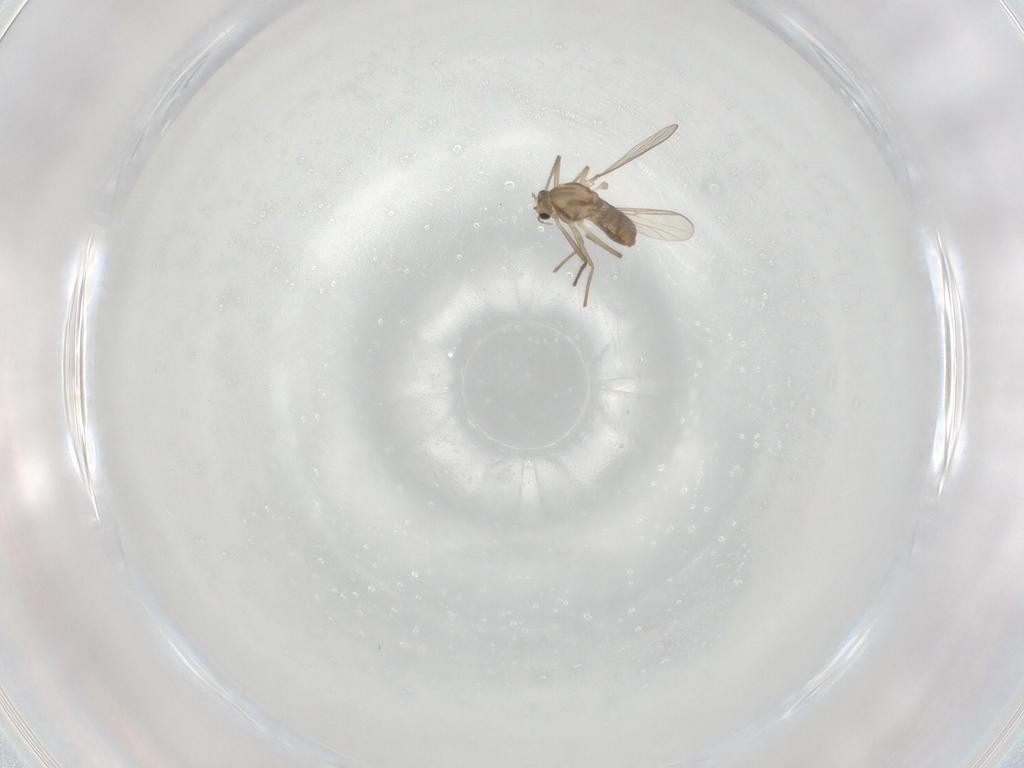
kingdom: Animalia
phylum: Arthropoda
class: Insecta
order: Diptera
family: Chironomidae
